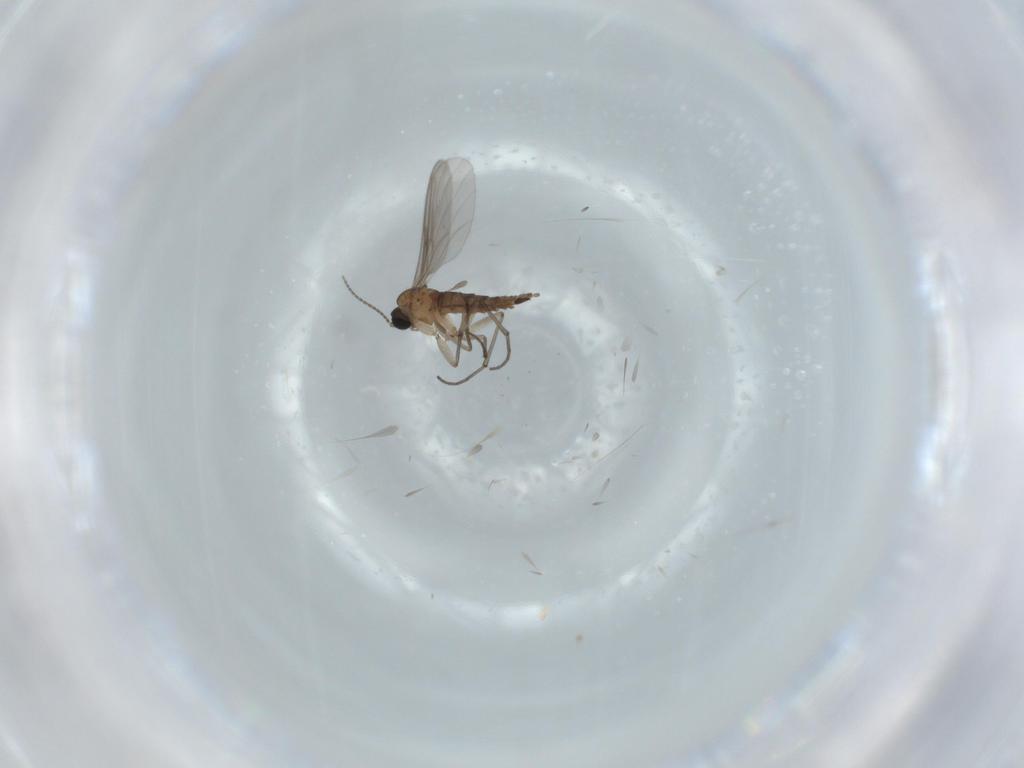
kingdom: Animalia
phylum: Arthropoda
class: Insecta
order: Diptera
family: Sciaridae
